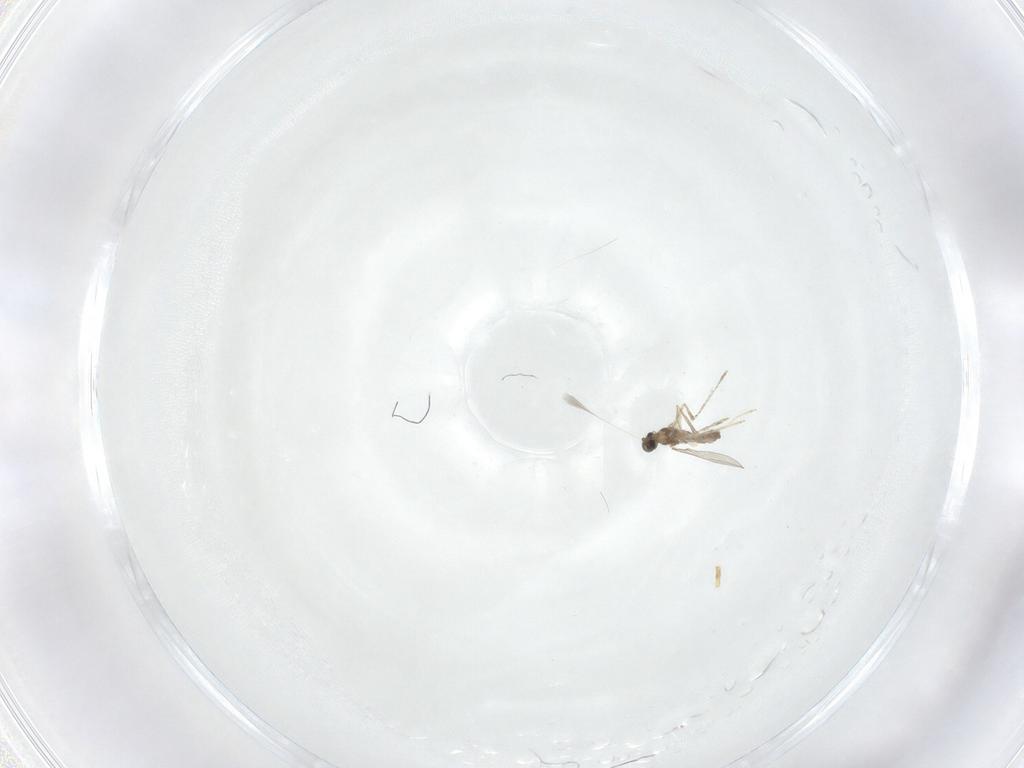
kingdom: Animalia
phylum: Arthropoda
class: Insecta
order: Diptera
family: Cecidomyiidae
